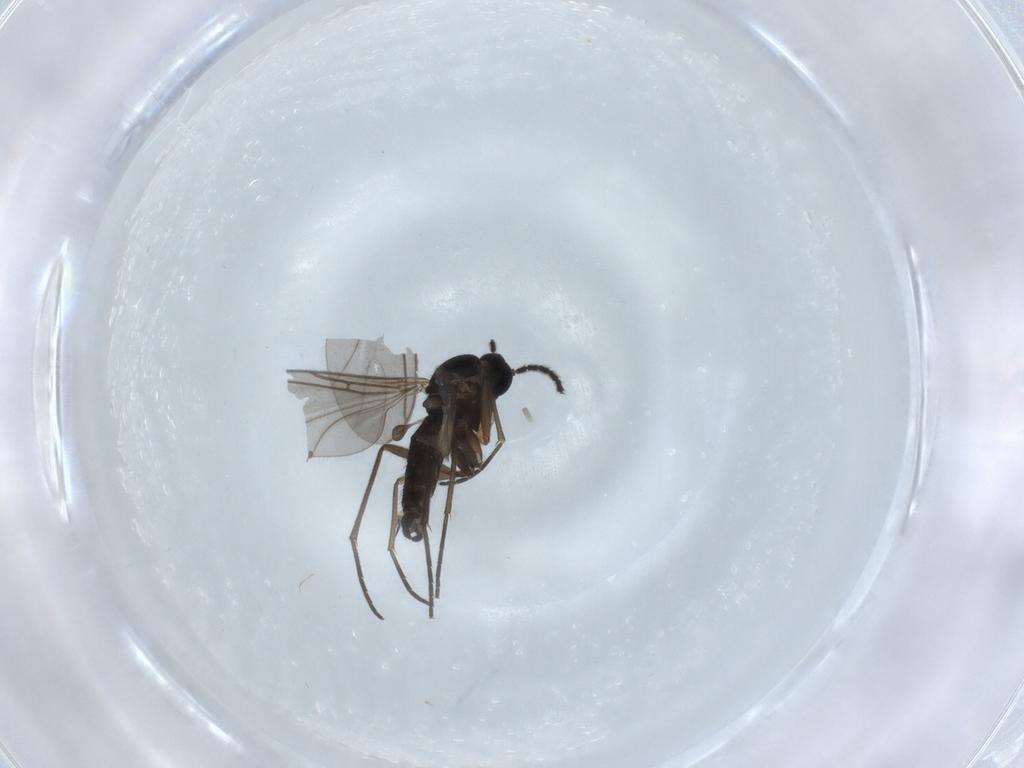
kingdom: Animalia
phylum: Arthropoda
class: Insecta
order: Diptera
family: Sciaridae
